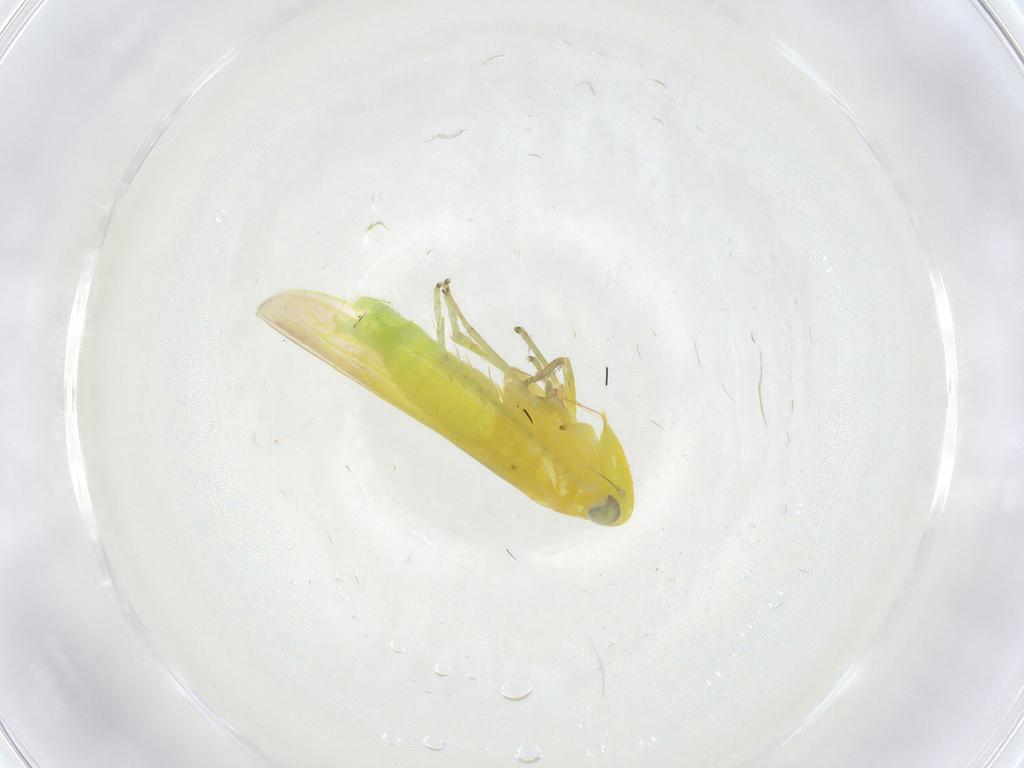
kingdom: Animalia
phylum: Arthropoda
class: Insecta
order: Hemiptera
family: Cicadellidae
